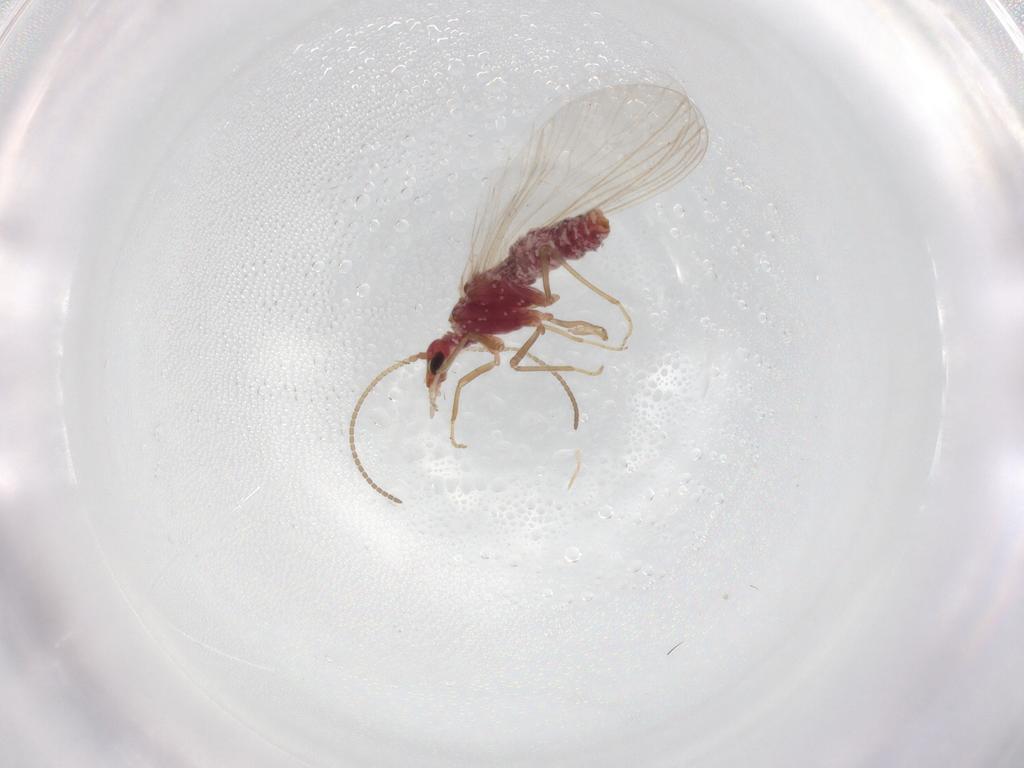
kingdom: Animalia
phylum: Arthropoda
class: Insecta
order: Neuroptera
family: Coniopterygidae
